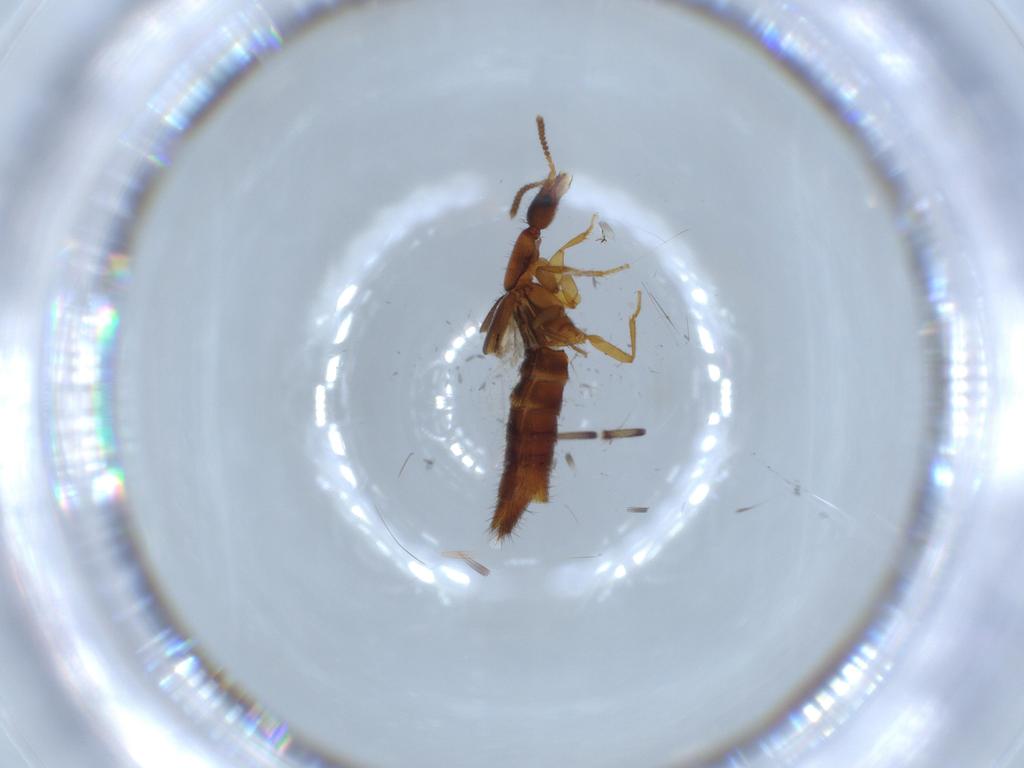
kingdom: Animalia
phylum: Arthropoda
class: Insecta
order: Coleoptera
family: Staphylinidae
